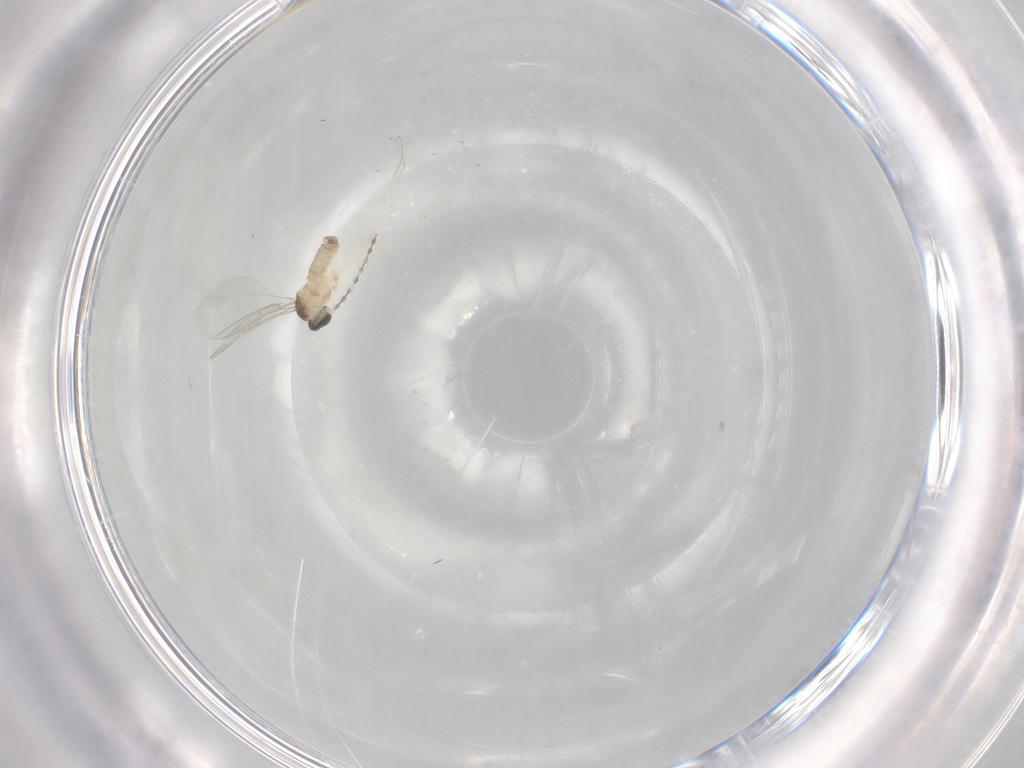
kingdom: Animalia
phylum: Arthropoda
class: Insecta
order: Diptera
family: Cecidomyiidae
